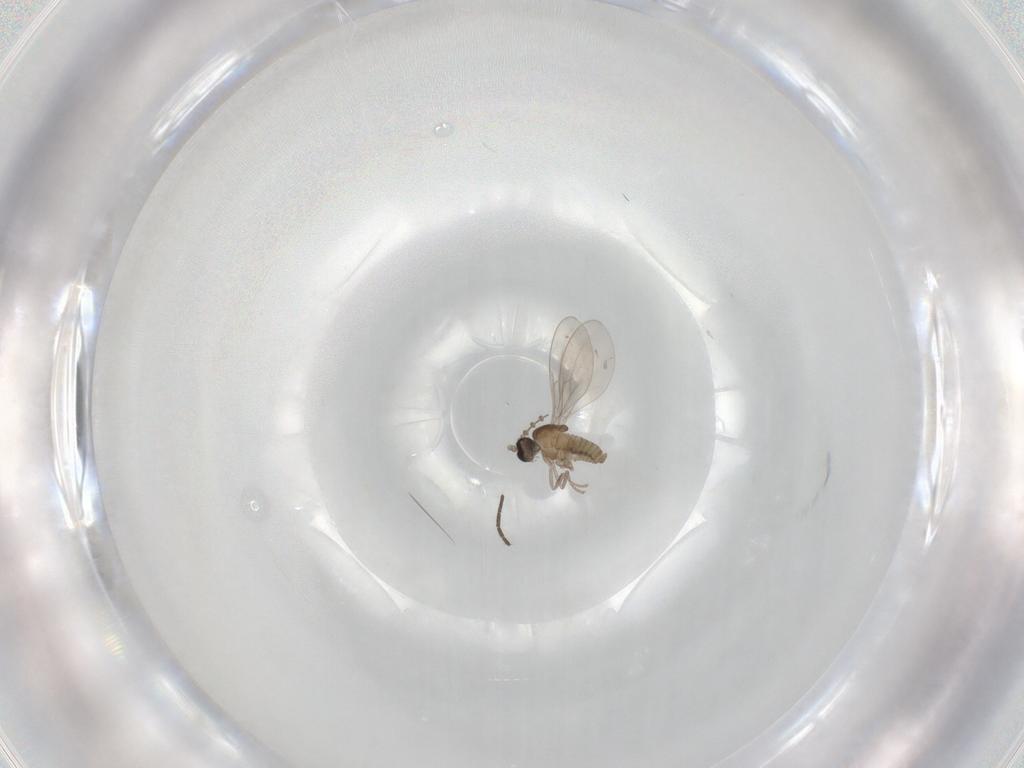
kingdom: Animalia
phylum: Arthropoda
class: Insecta
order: Diptera
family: Cecidomyiidae
